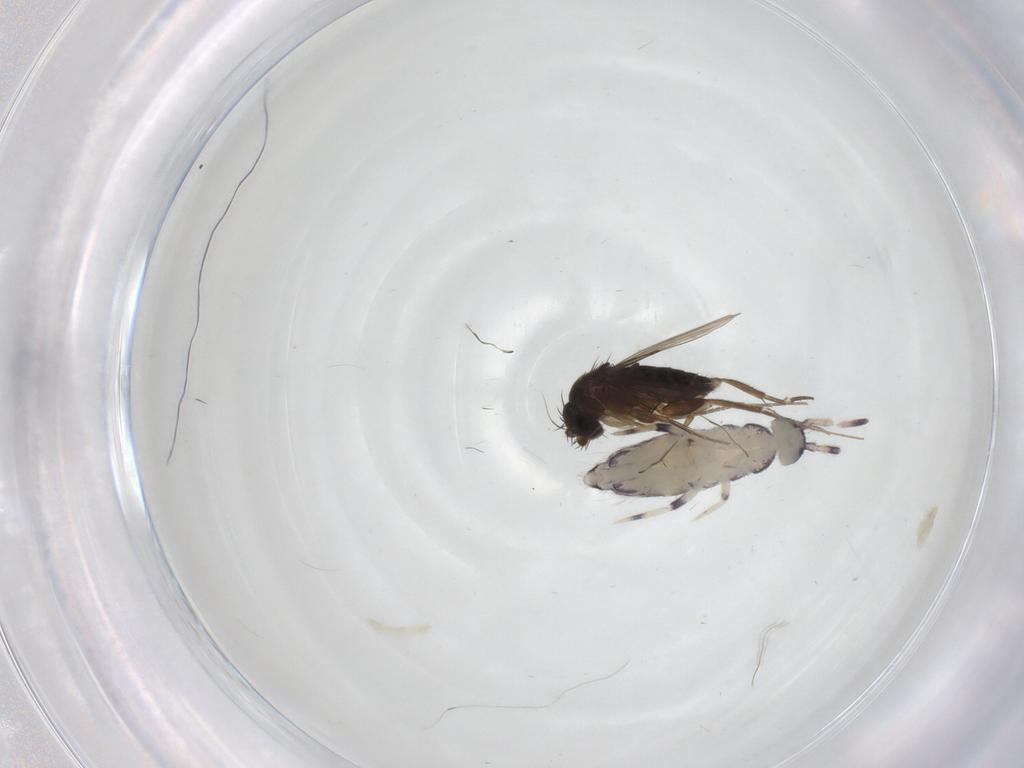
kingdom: Animalia
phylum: Arthropoda
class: Insecta
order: Diptera
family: Chironomidae
